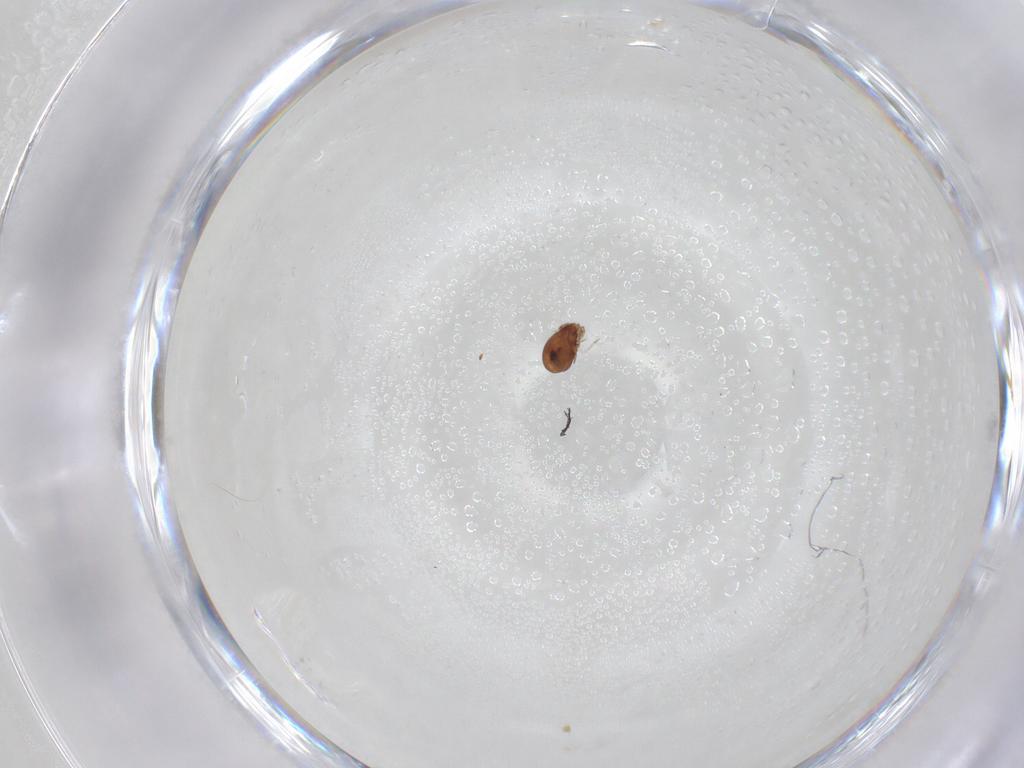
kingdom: Animalia
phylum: Arthropoda
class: Arachnida
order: Sarcoptiformes
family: Scheloribatidae
